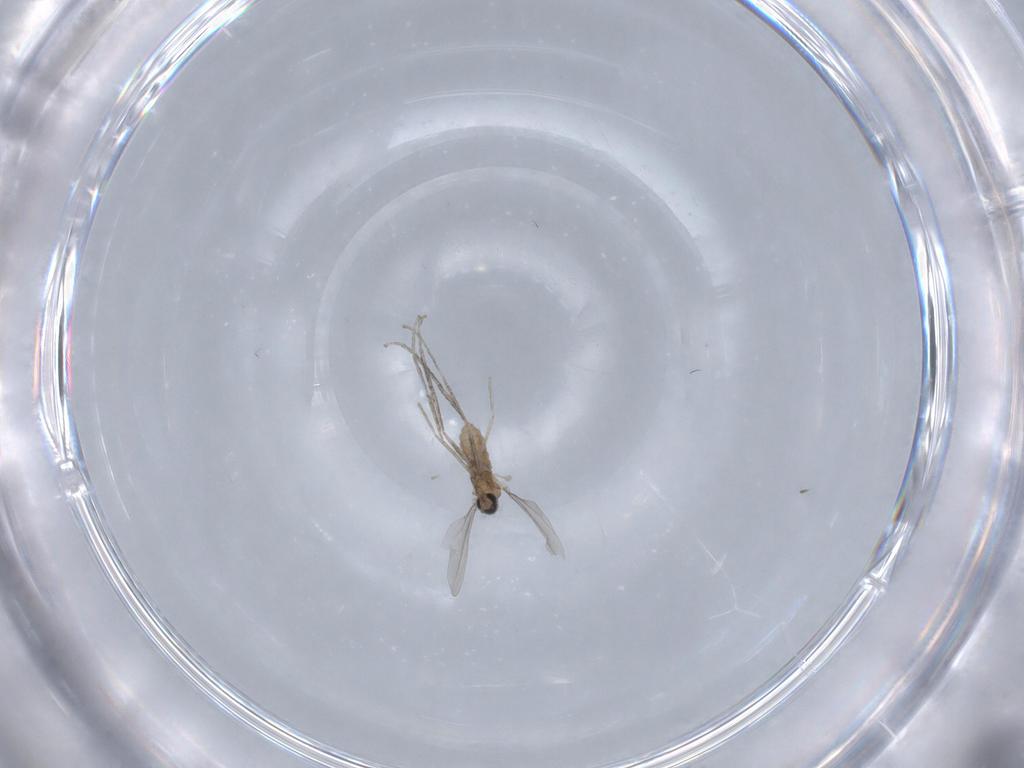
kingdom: Animalia
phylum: Arthropoda
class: Insecta
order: Diptera
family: Cecidomyiidae
